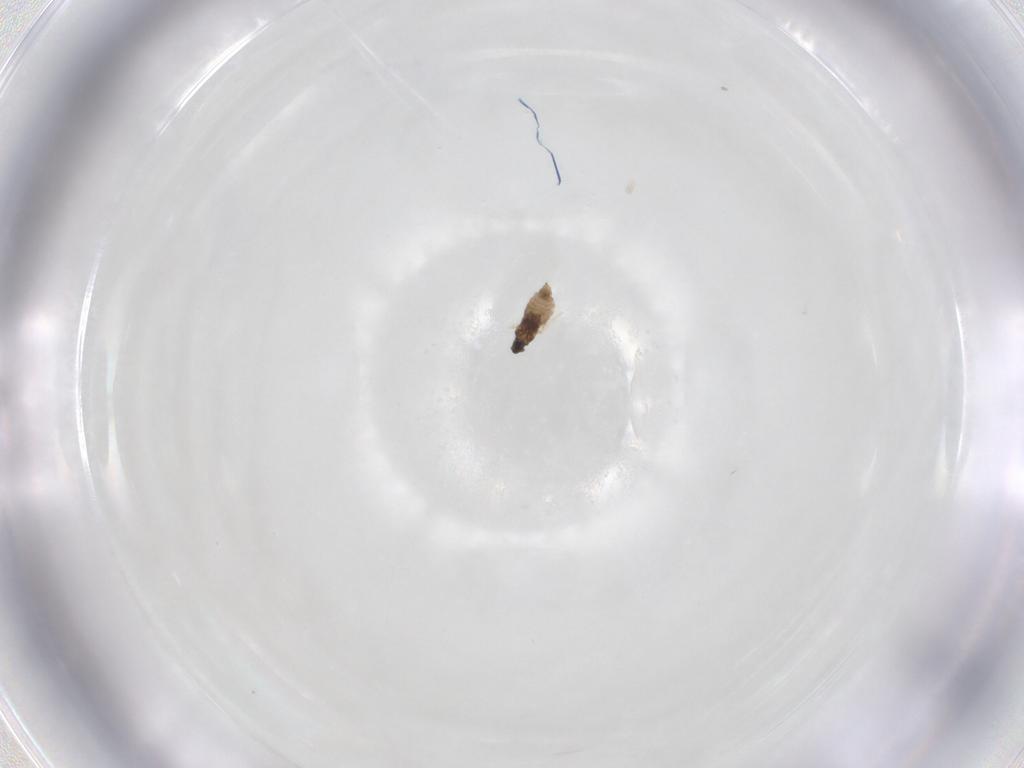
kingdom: Animalia
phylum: Arthropoda
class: Insecta
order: Diptera
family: Cecidomyiidae
